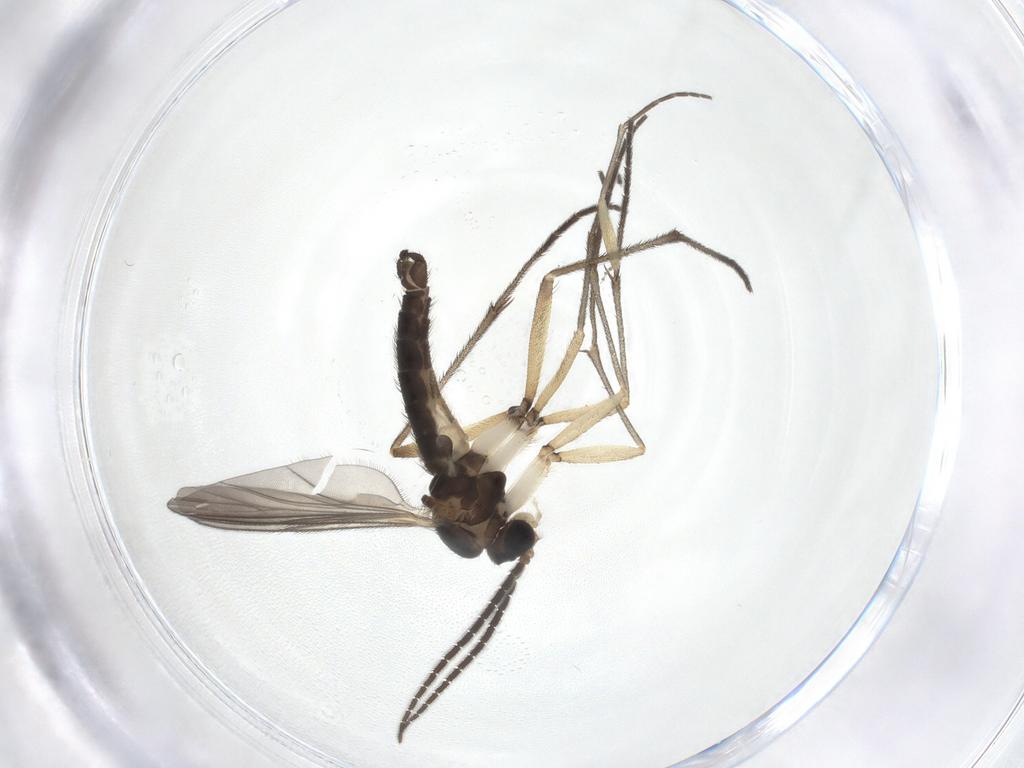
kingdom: Animalia
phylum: Arthropoda
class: Insecta
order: Diptera
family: Sciaridae
